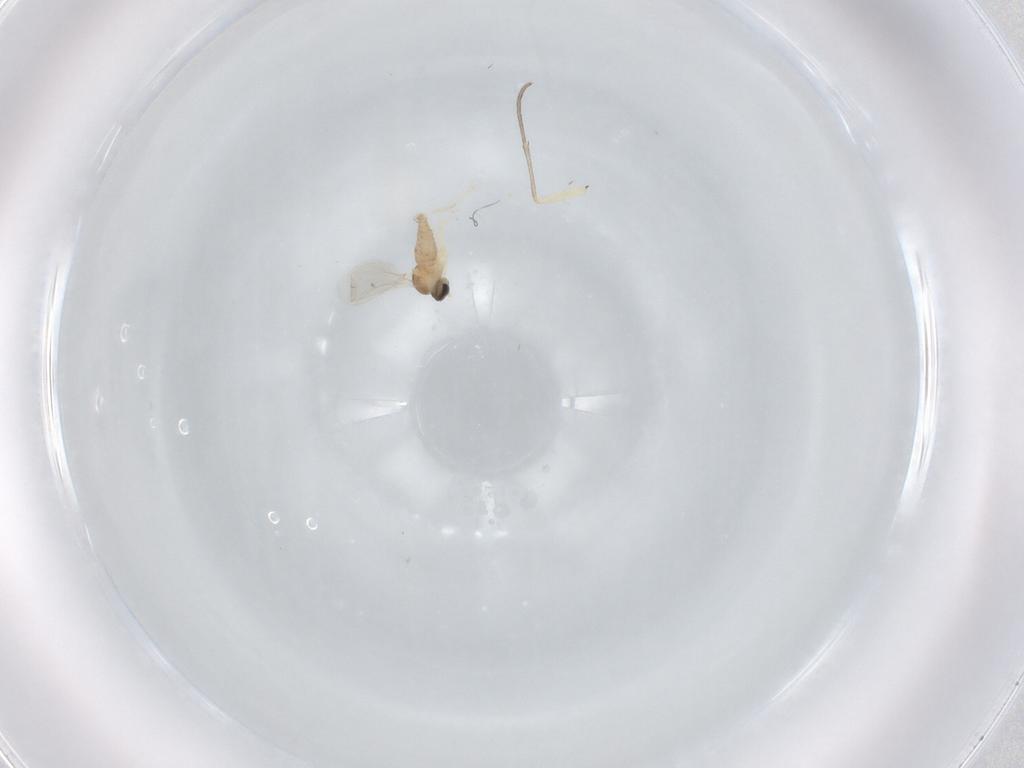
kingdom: Animalia
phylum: Arthropoda
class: Insecta
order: Diptera
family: Cecidomyiidae
